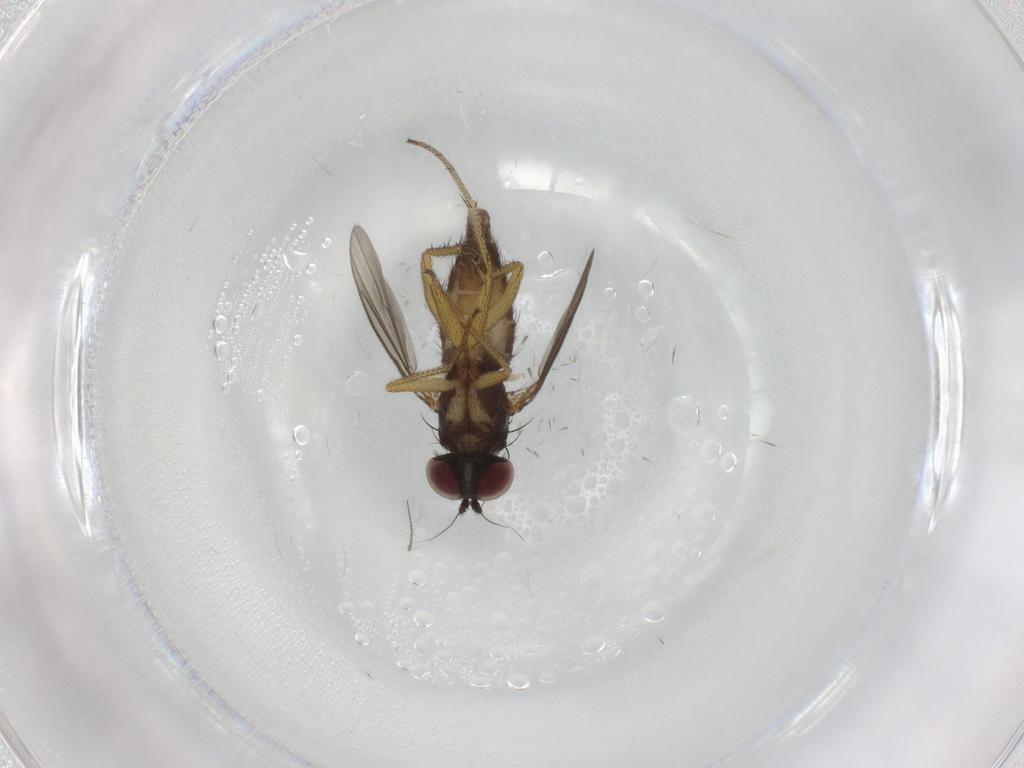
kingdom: Animalia
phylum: Arthropoda
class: Insecta
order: Diptera
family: Dolichopodidae
